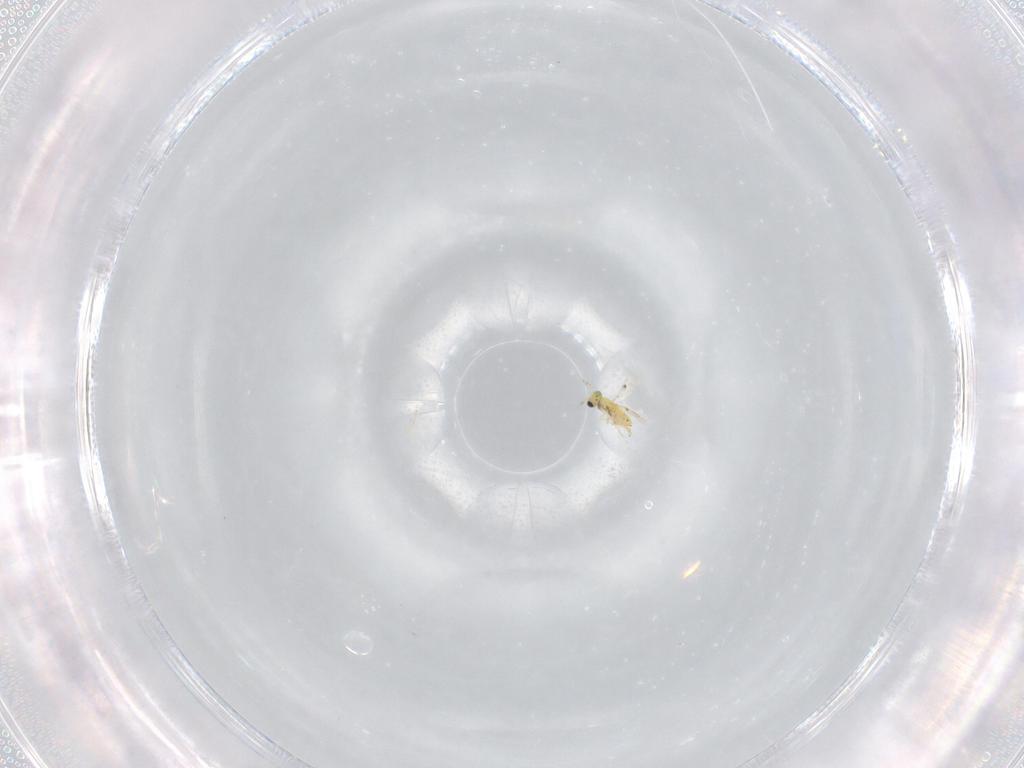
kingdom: Animalia
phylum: Arthropoda
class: Insecta
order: Hymenoptera
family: Trichogrammatidae
